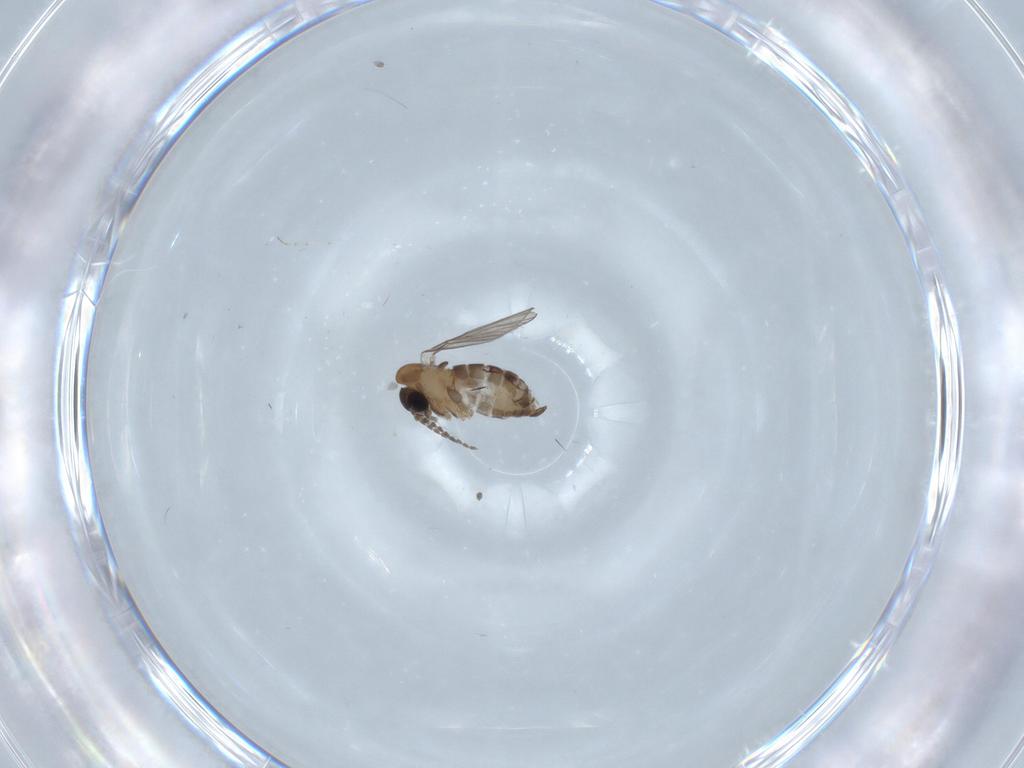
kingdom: Animalia
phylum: Arthropoda
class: Insecta
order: Diptera
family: Chironomidae
